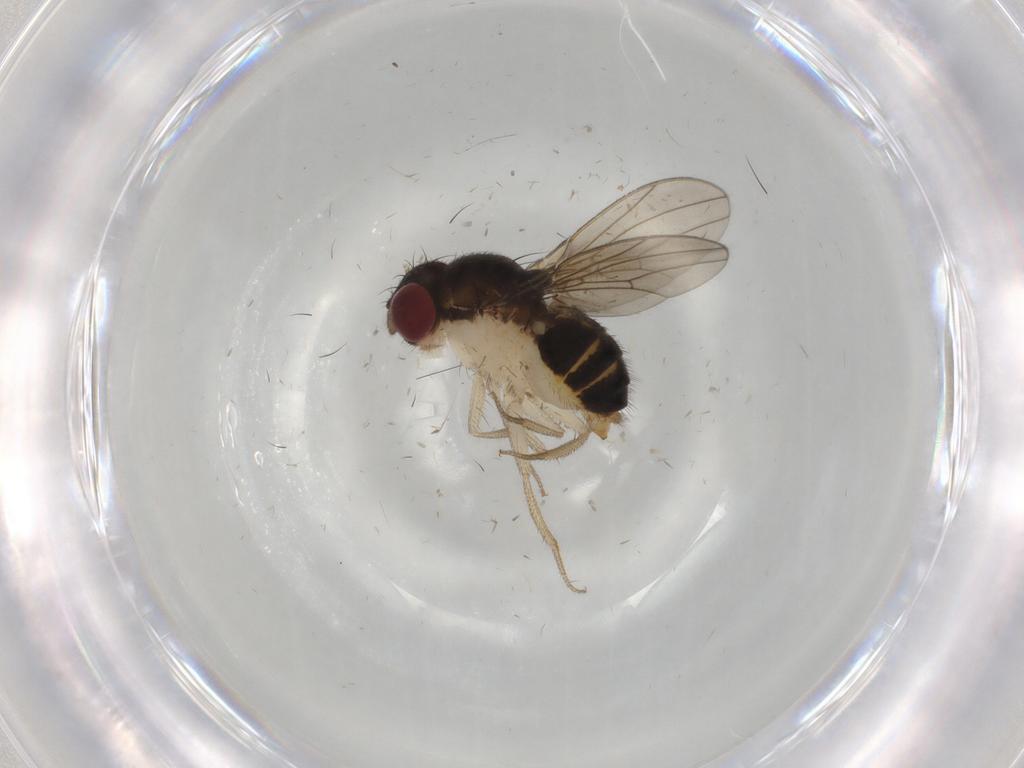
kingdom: Animalia
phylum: Arthropoda
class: Insecta
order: Diptera
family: Drosophilidae
